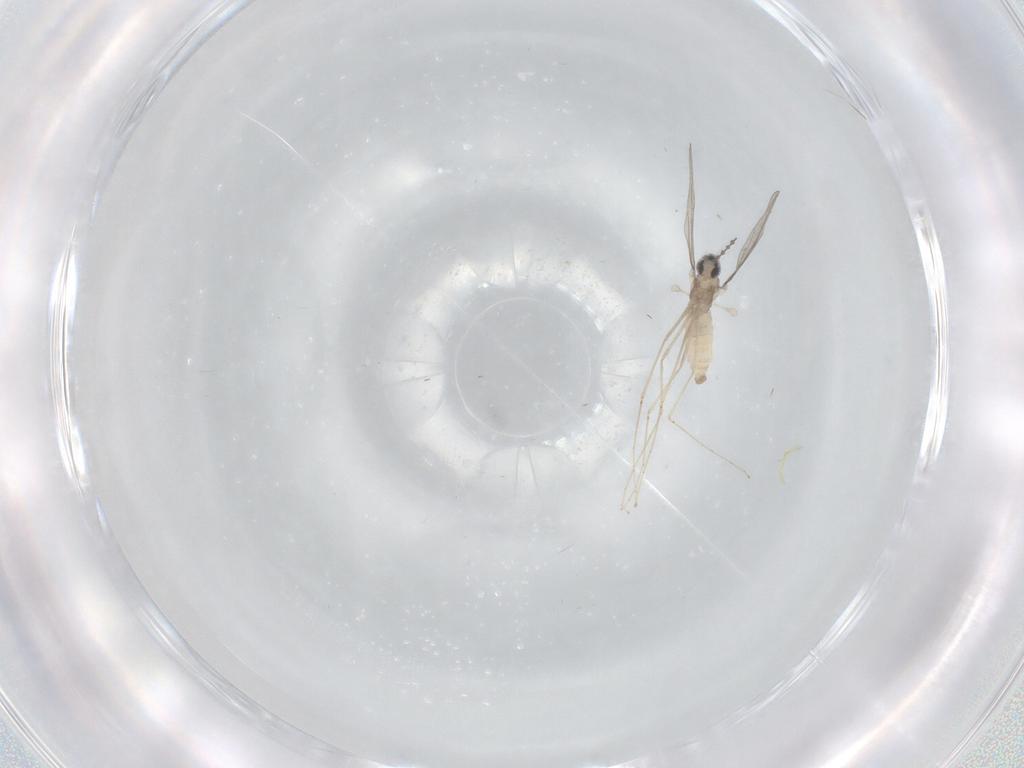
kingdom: Animalia
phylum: Arthropoda
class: Insecta
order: Diptera
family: Cecidomyiidae
